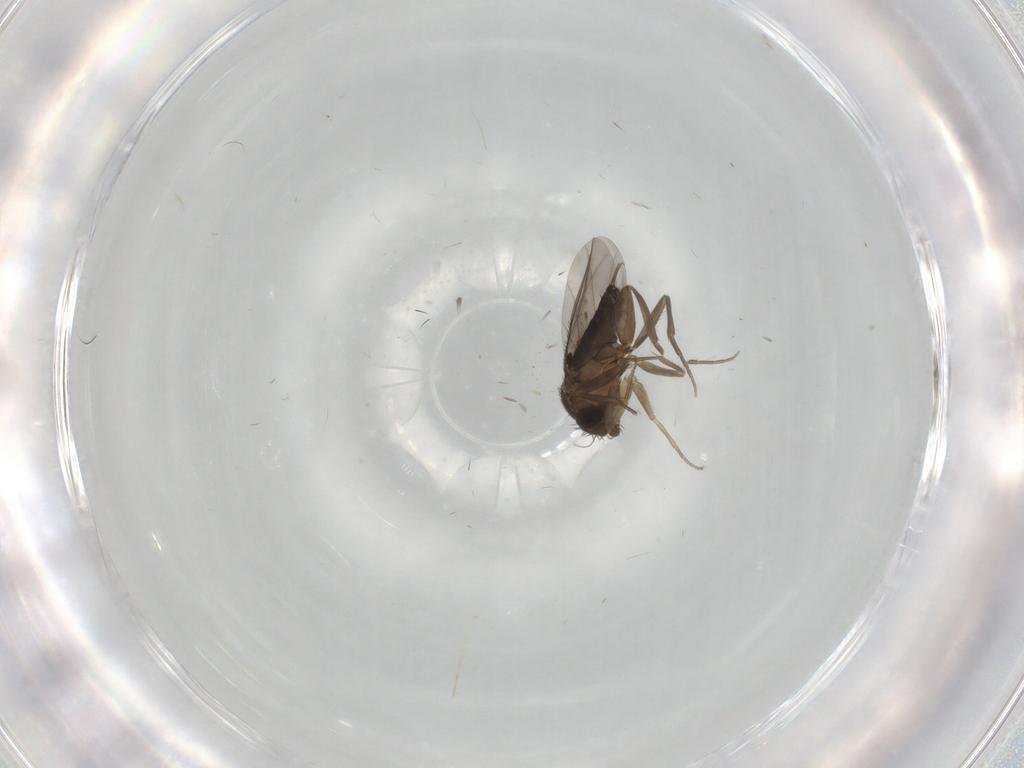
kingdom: Animalia
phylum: Arthropoda
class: Insecta
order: Diptera
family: Phoridae
